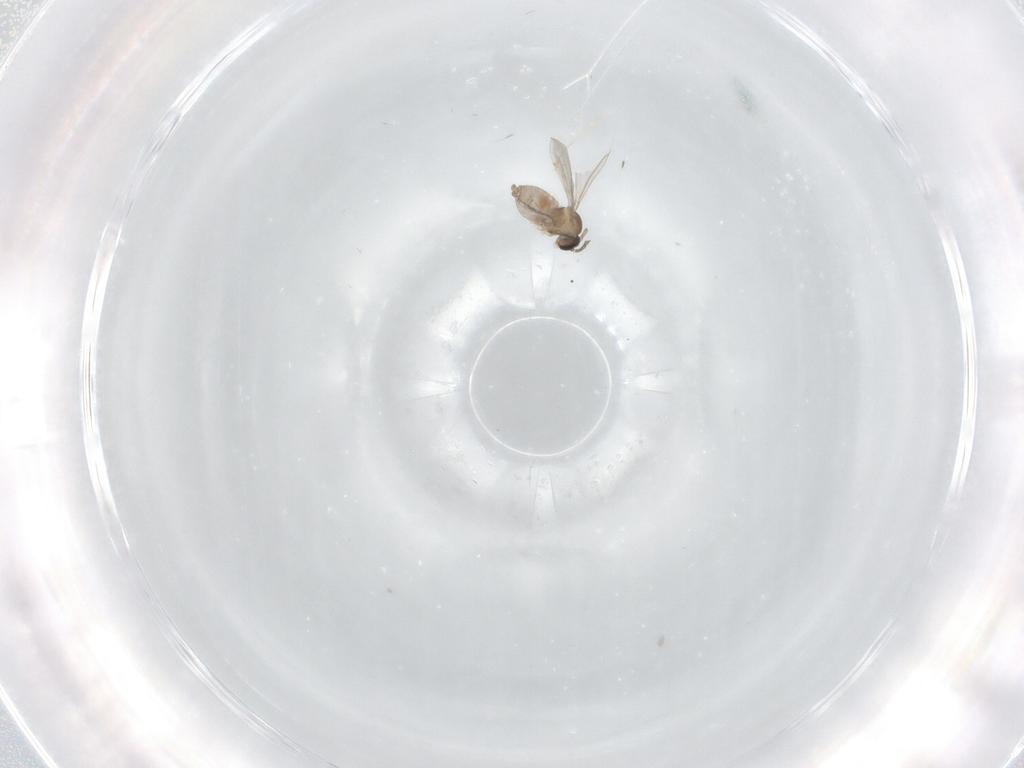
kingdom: Animalia
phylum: Arthropoda
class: Insecta
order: Diptera
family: Cecidomyiidae
